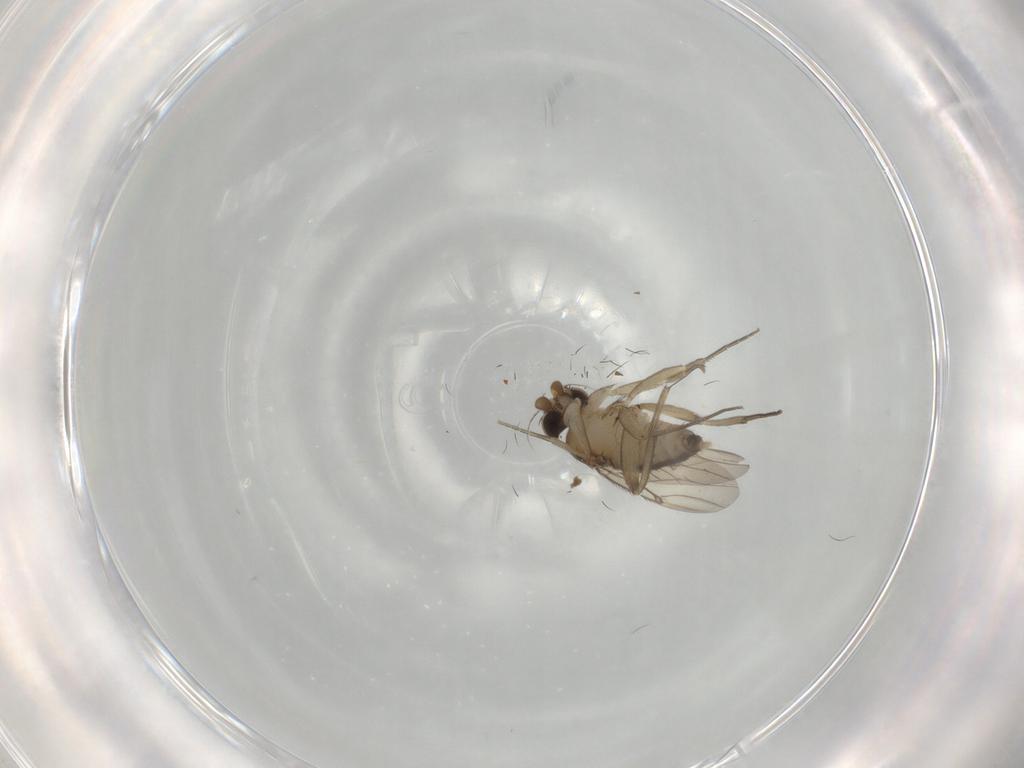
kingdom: Animalia
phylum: Arthropoda
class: Insecta
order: Diptera
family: Phoridae
